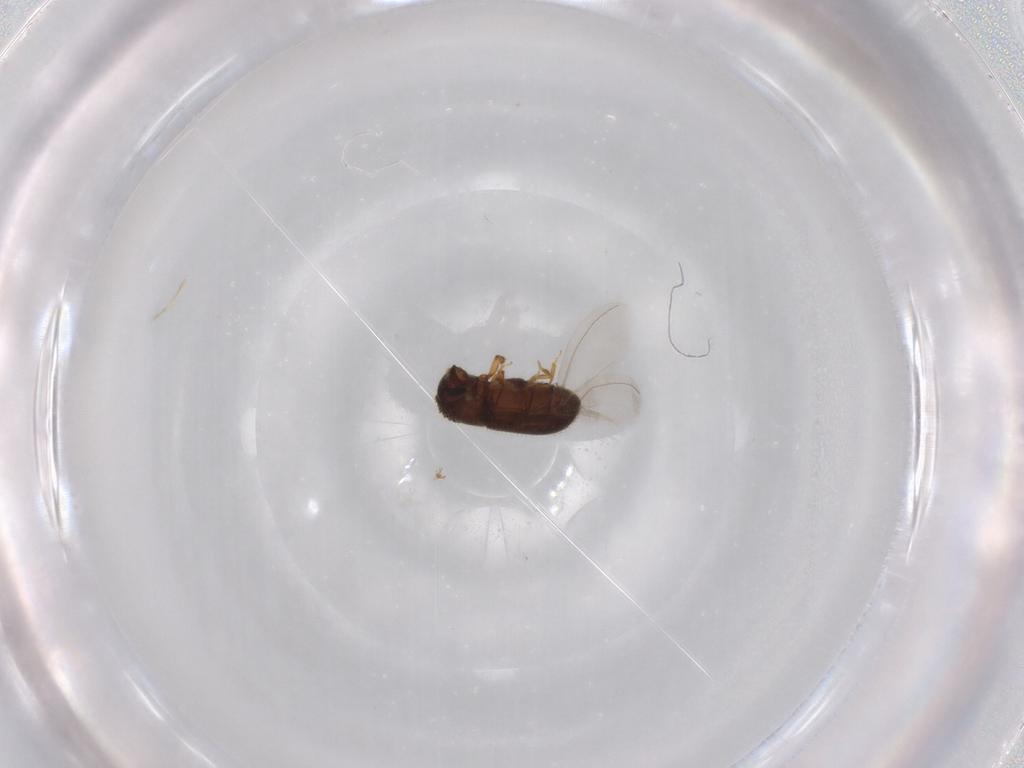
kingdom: Animalia
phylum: Arthropoda
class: Insecta
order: Coleoptera
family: Curculionidae
